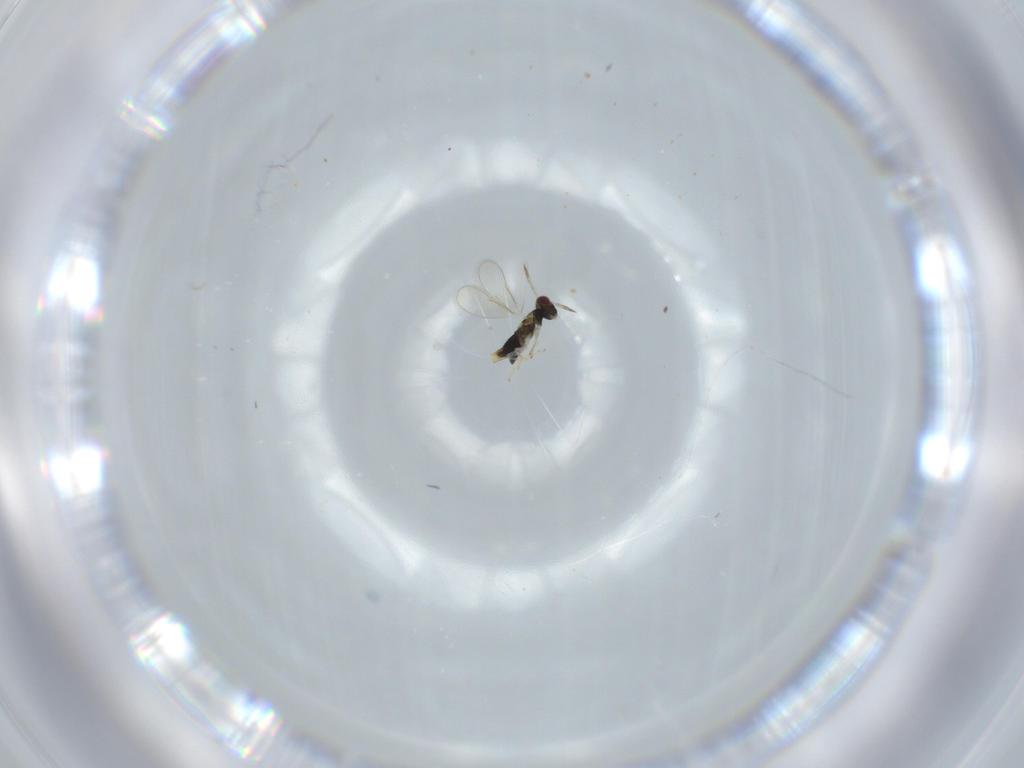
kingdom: Animalia
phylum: Arthropoda
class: Insecta
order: Hymenoptera
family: Aphelinidae
